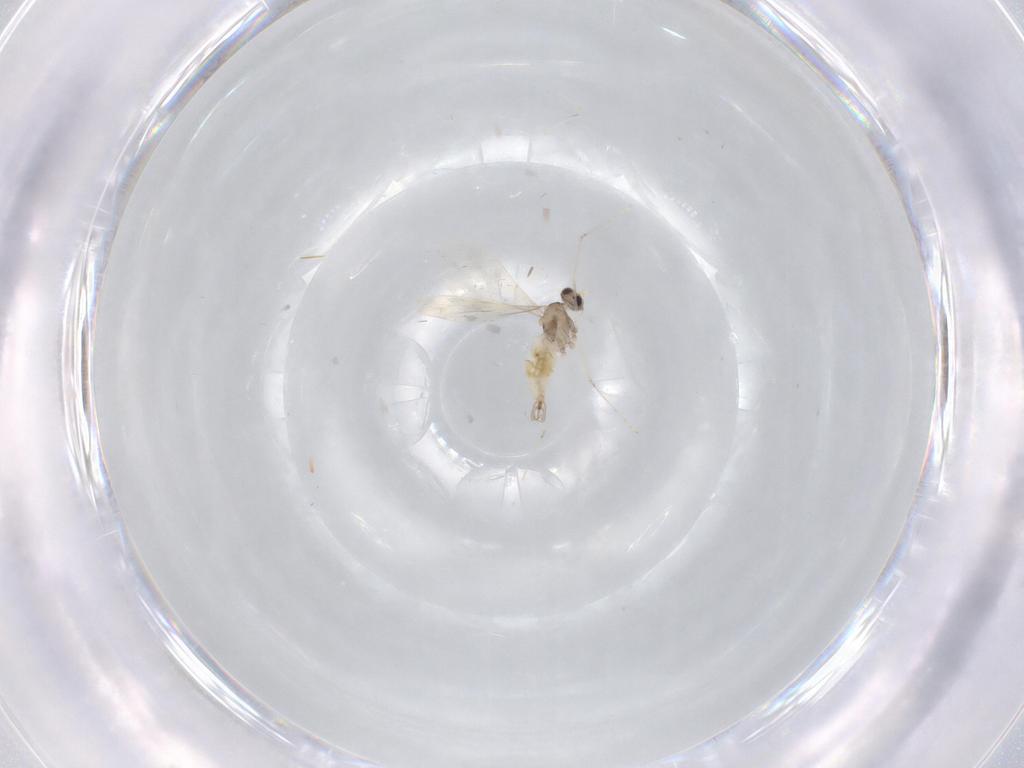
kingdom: Animalia
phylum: Arthropoda
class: Insecta
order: Diptera
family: Cecidomyiidae
